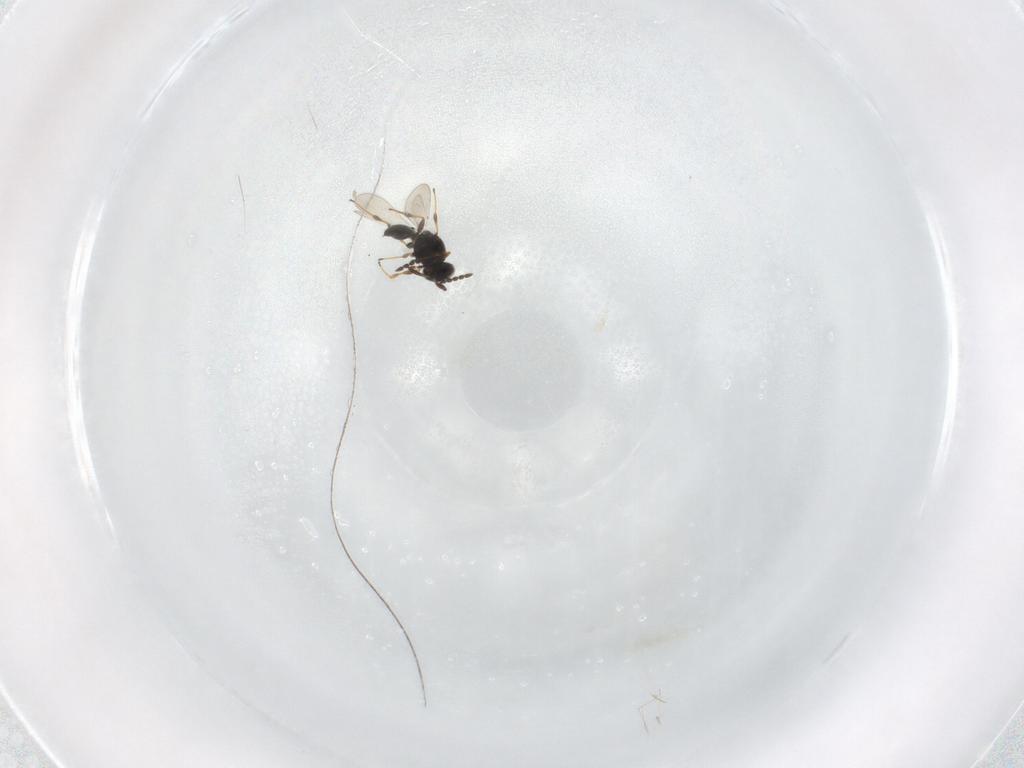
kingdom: Animalia
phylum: Arthropoda
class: Insecta
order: Hymenoptera
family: Platygastridae
